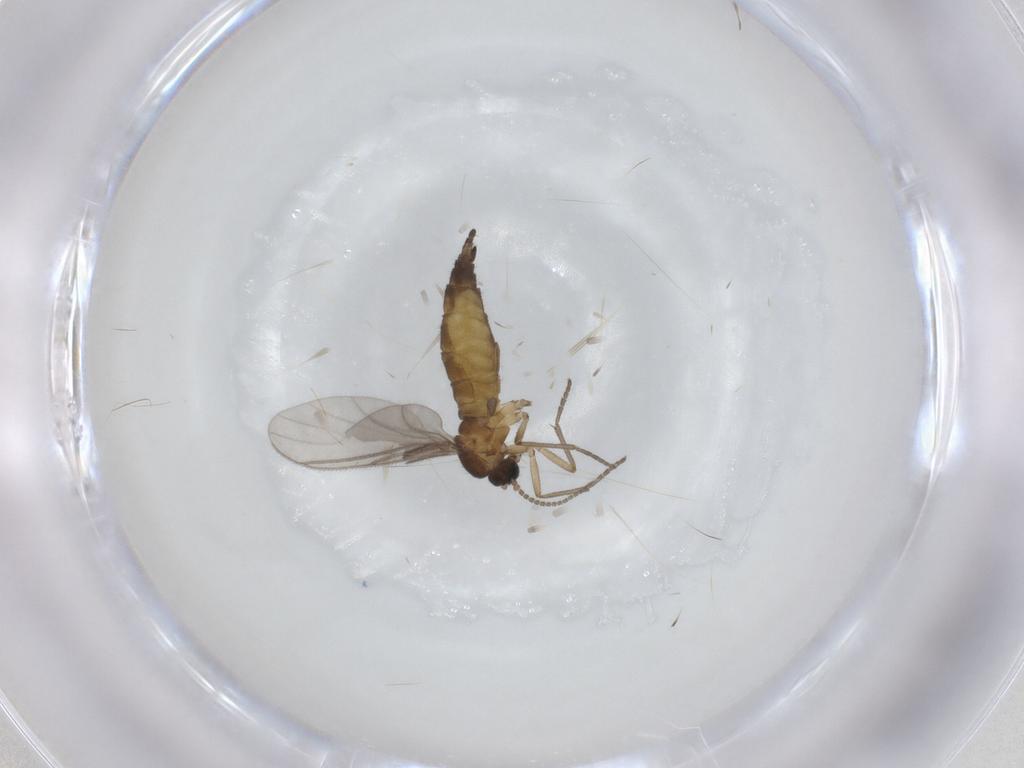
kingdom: Animalia
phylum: Arthropoda
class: Insecta
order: Diptera
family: Sciaridae
